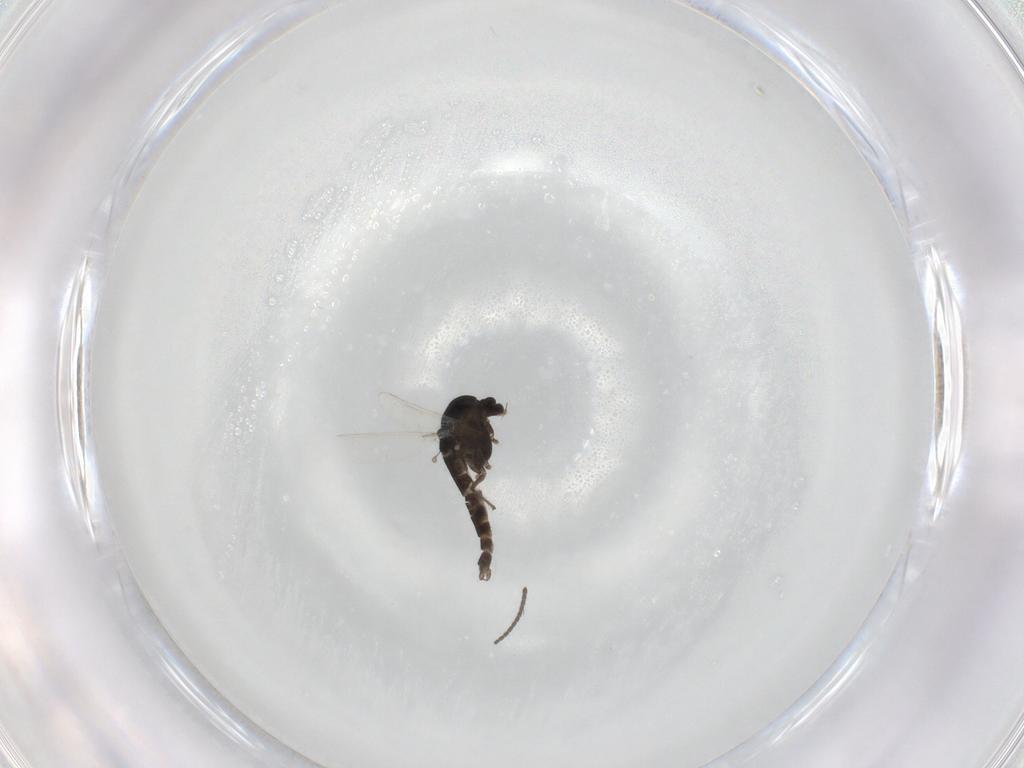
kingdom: Animalia
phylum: Arthropoda
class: Insecta
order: Diptera
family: Chironomidae
